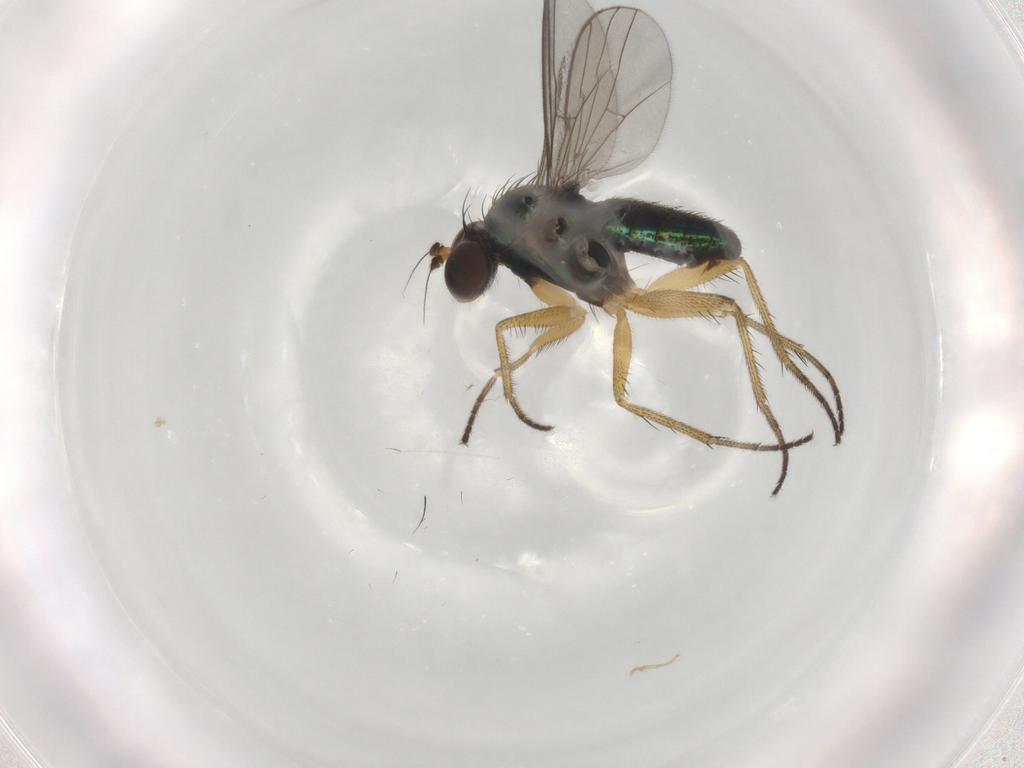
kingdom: Animalia
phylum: Arthropoda
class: Insecta
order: Diptera
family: Dolichopodidae
